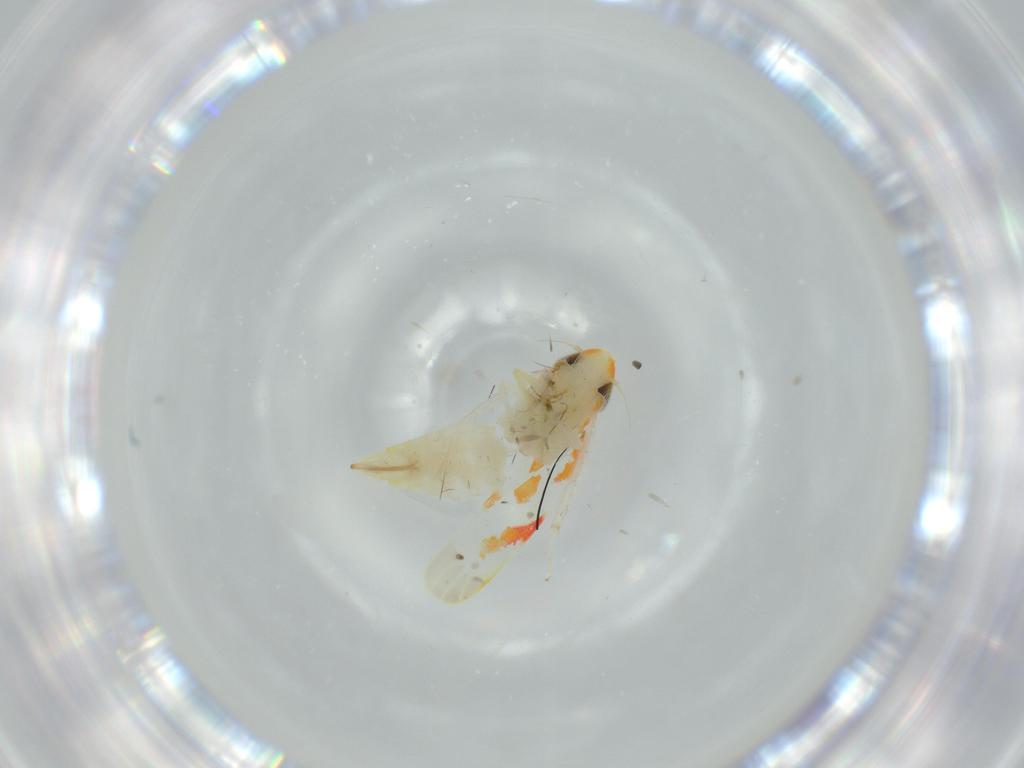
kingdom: Animalia
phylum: Arthropoda
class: Insecta
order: Hemiptera
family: Cicadellidae
